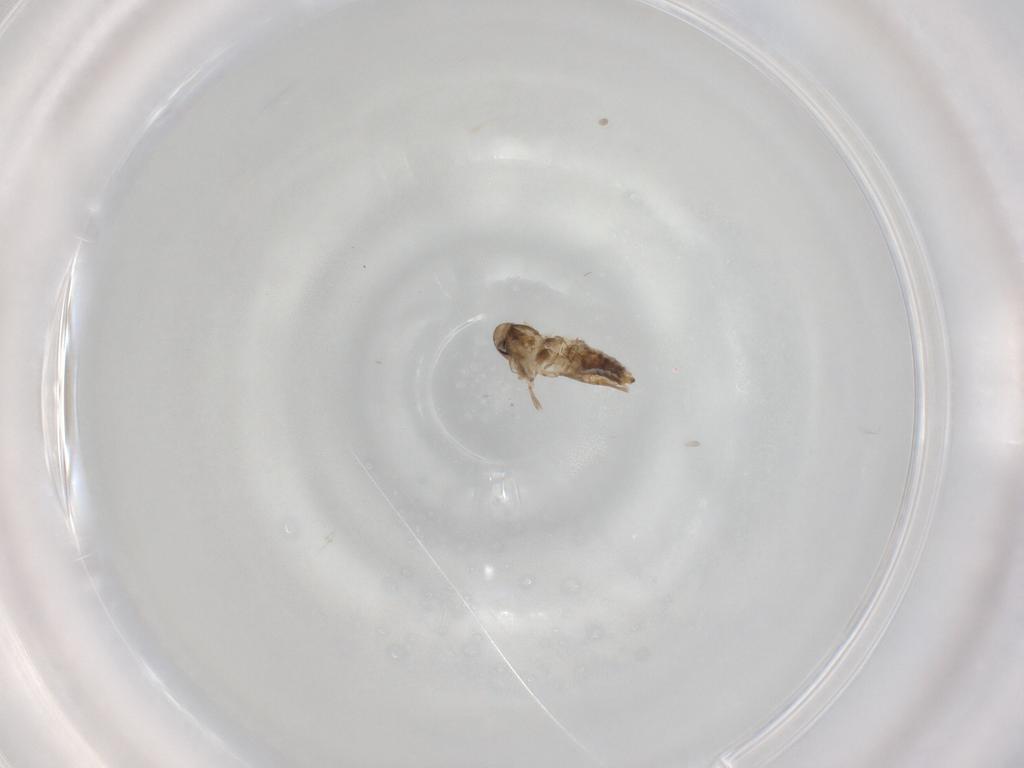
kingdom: Animalia
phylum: Arthropoda
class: Insecta
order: Lepidoptera
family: Nymphalidae
